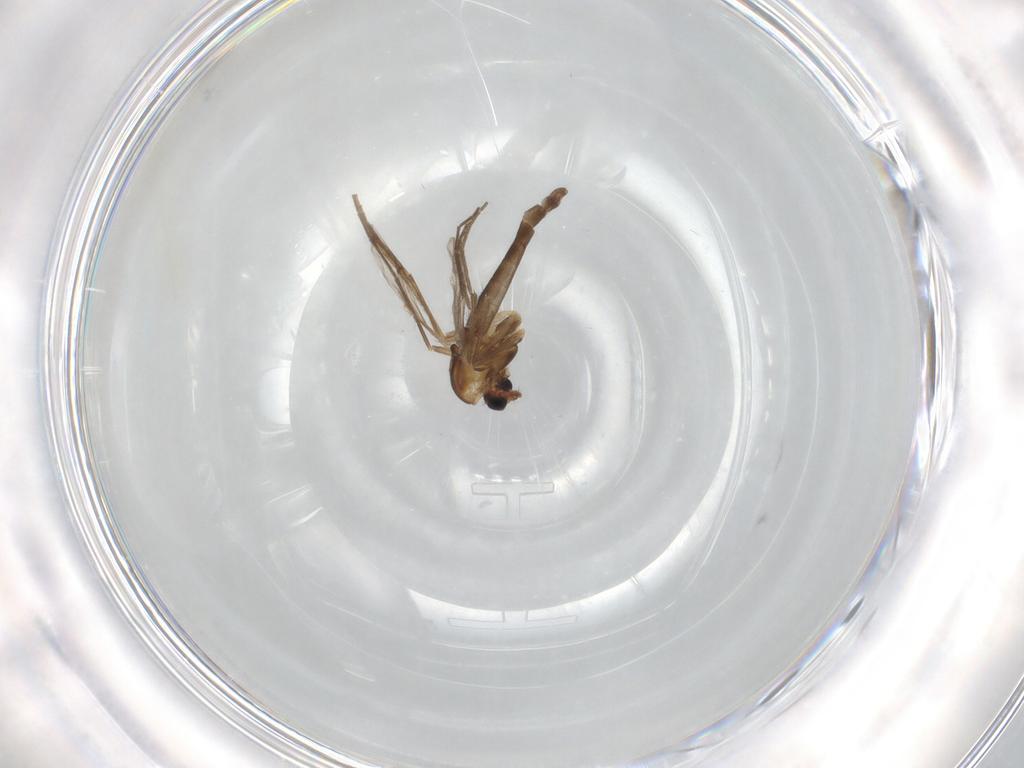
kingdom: Animalia
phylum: Arthropoda
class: Insecta
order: Diptera
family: Chironomidae
